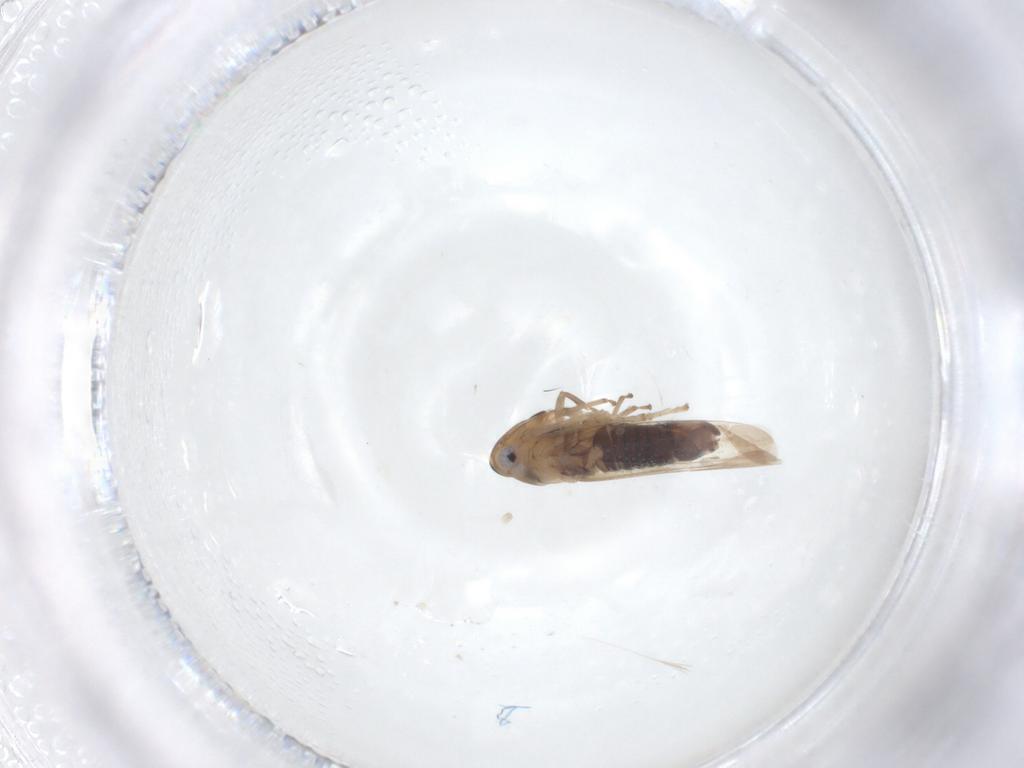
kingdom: Animalia
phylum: Arthropoda
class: Insecta
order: Hemiptera
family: Cicadellidae
